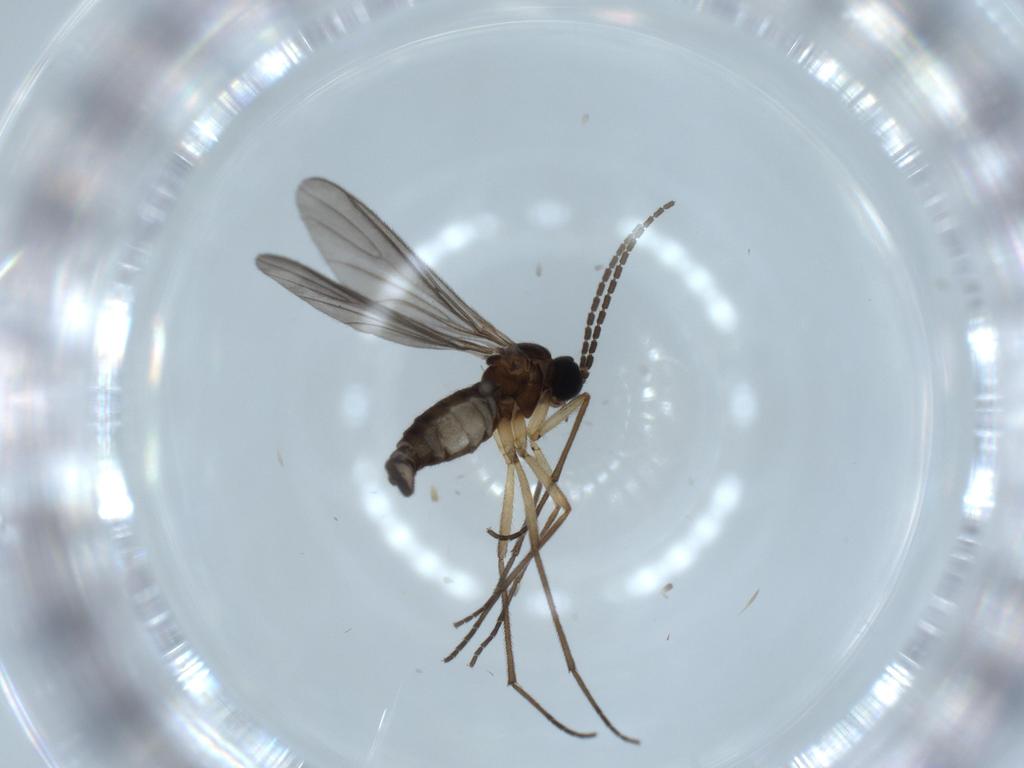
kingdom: Animalia
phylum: Arthropoda
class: Insecta
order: Diptera
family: Sciaridae
